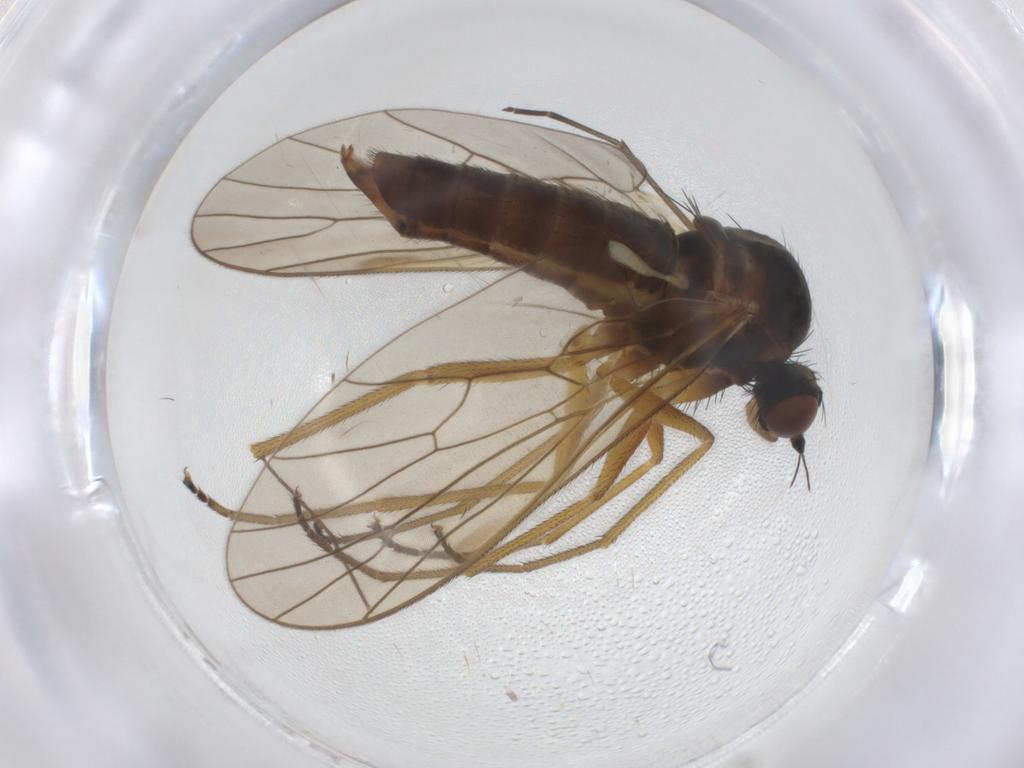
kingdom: Animalia
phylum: Arthropoda
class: Insecta
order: Diptera
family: Brachystomatidae
